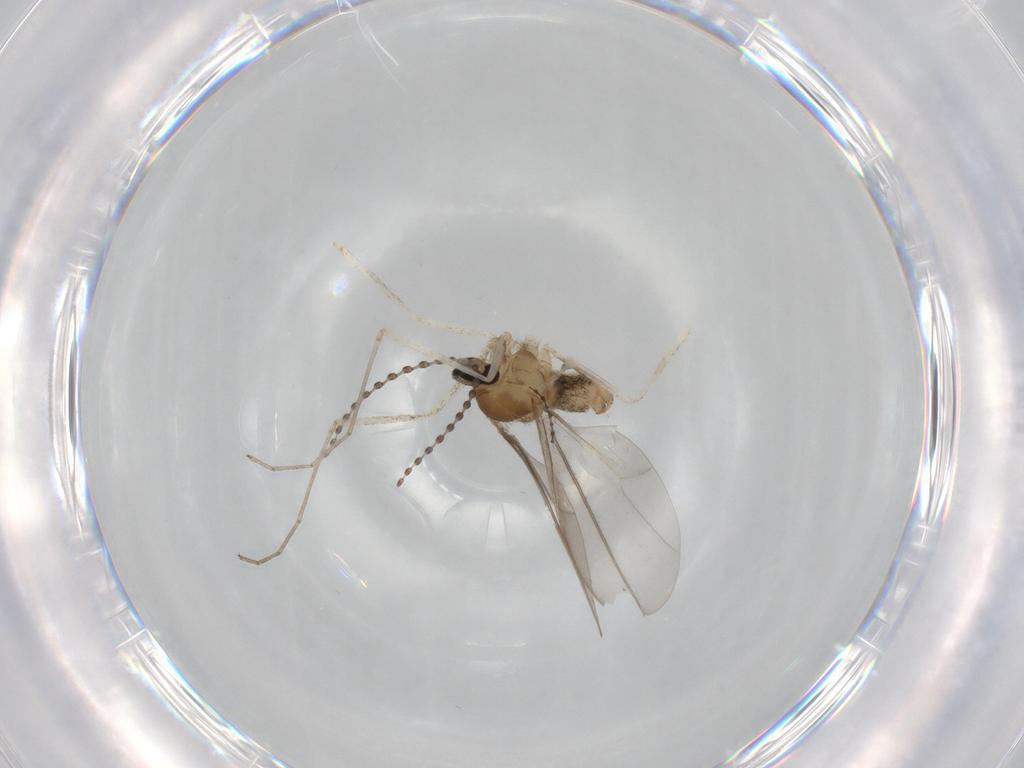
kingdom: Animalia
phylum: Arthropoda
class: Insecta
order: Diptera
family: Cecidomyiidae
